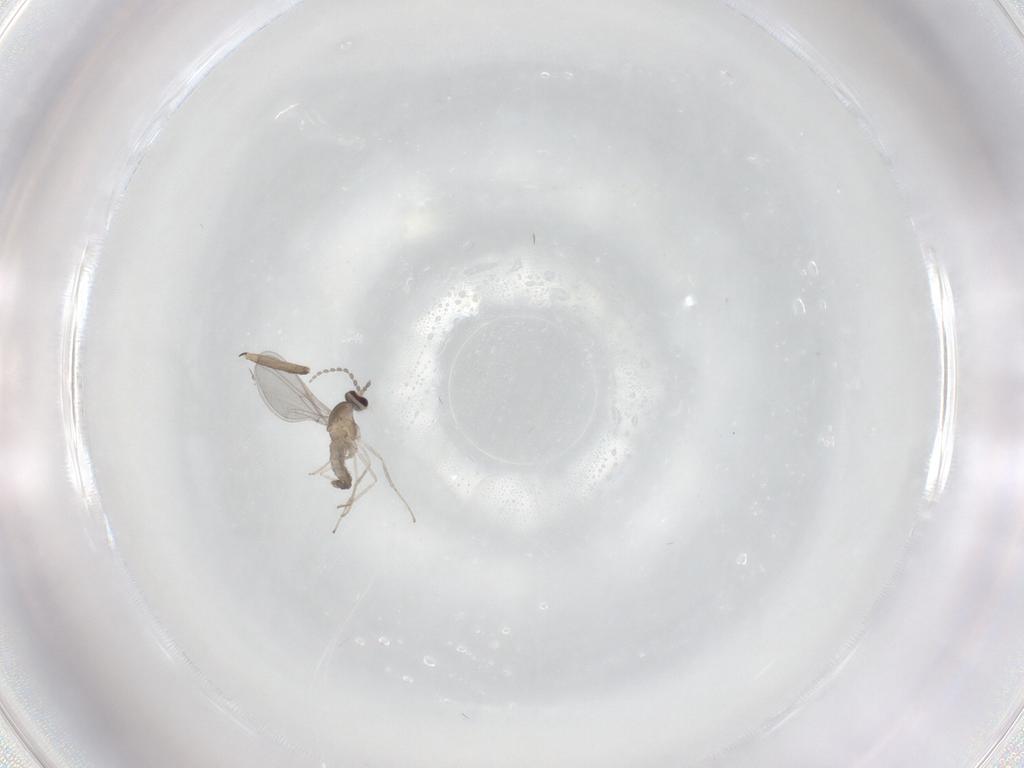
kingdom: Animalia
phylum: Arthropoda
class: Insecta
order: Diptera
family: Cecidomyiidae
